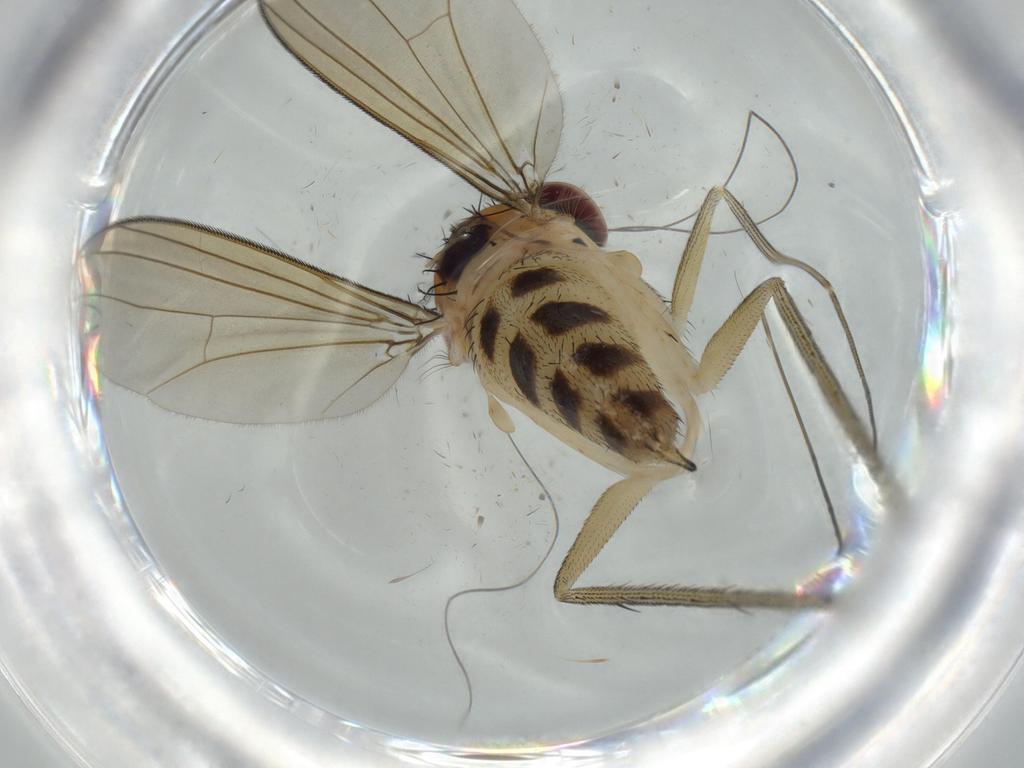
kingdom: Animalia
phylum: Arthropoda
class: Insecta
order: Diptera
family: Dolichopodidae
